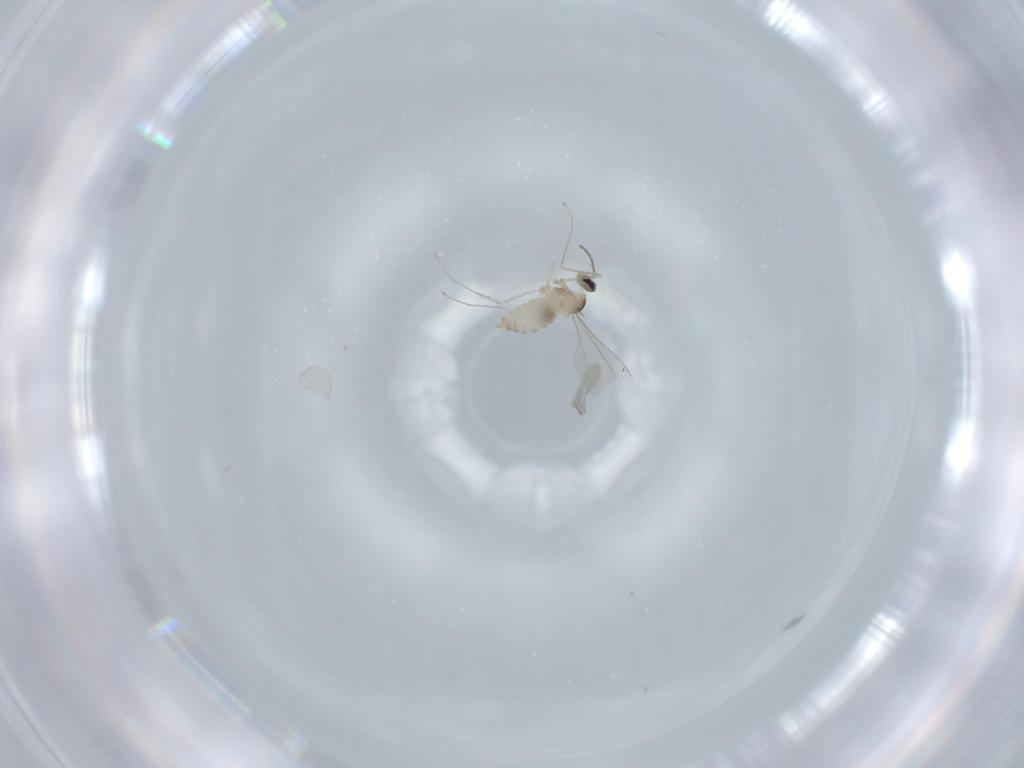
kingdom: Animalia
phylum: Arthropoda
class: Insecta
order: Diptera
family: Cecidomyiidae
